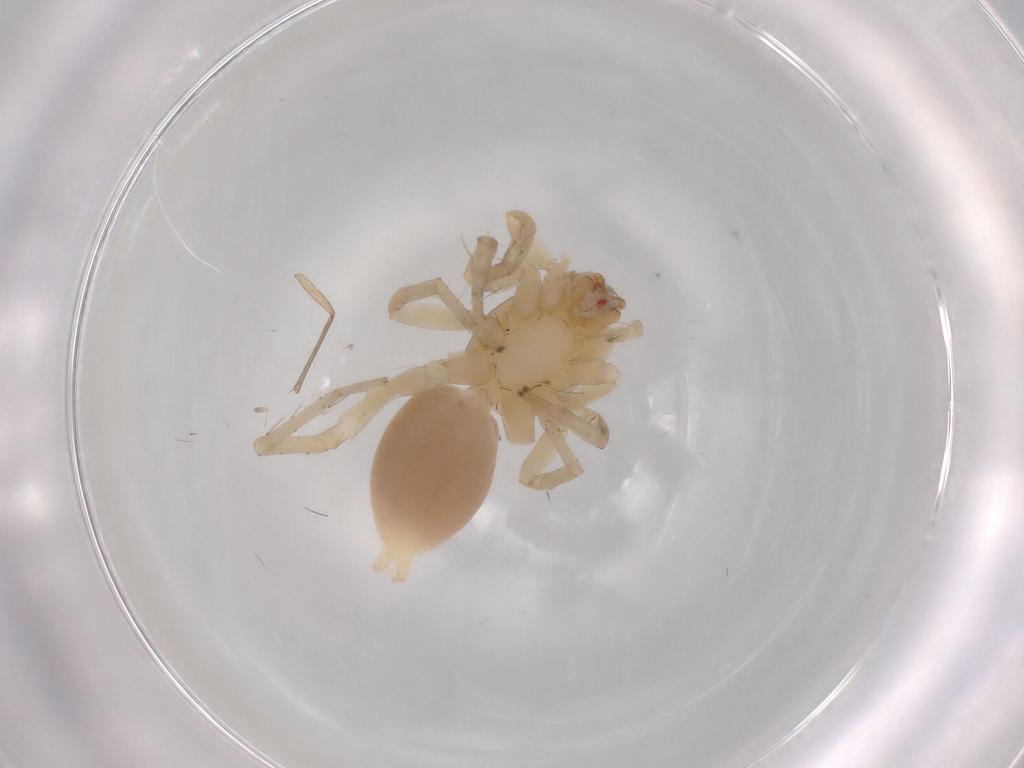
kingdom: Animalia
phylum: Arthropoda
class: Arachnida
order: Araneae
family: Clubionidae
